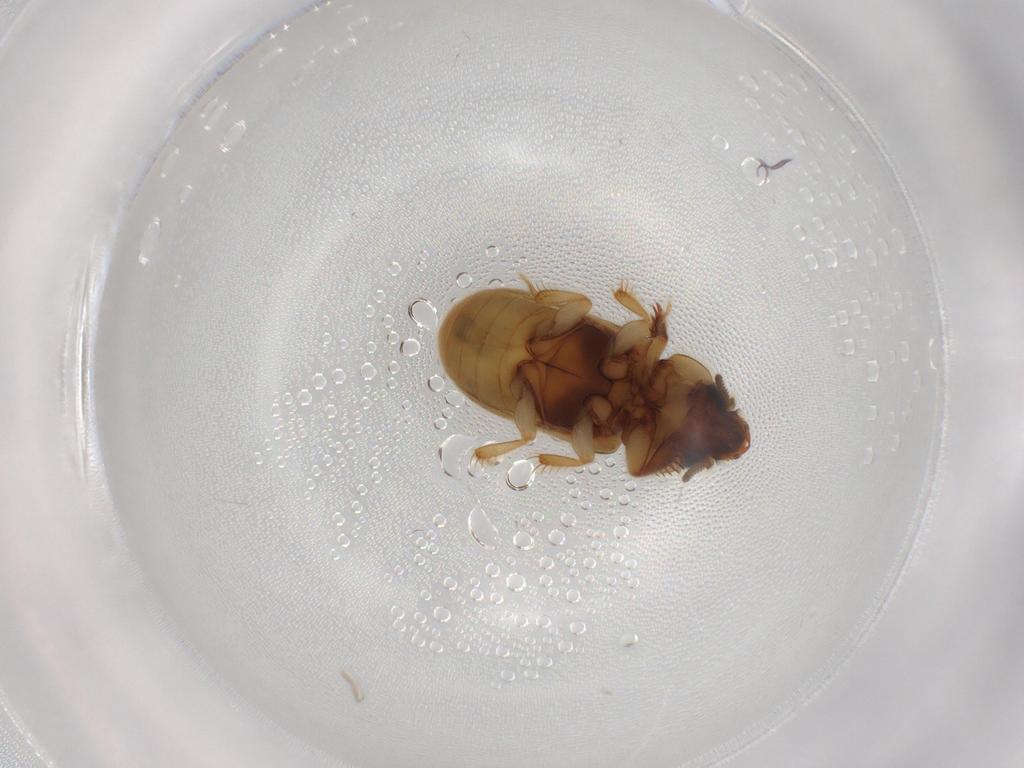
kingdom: Animalia
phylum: Arthropoda
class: Insecta
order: Coleoptera
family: Heteroceridae
